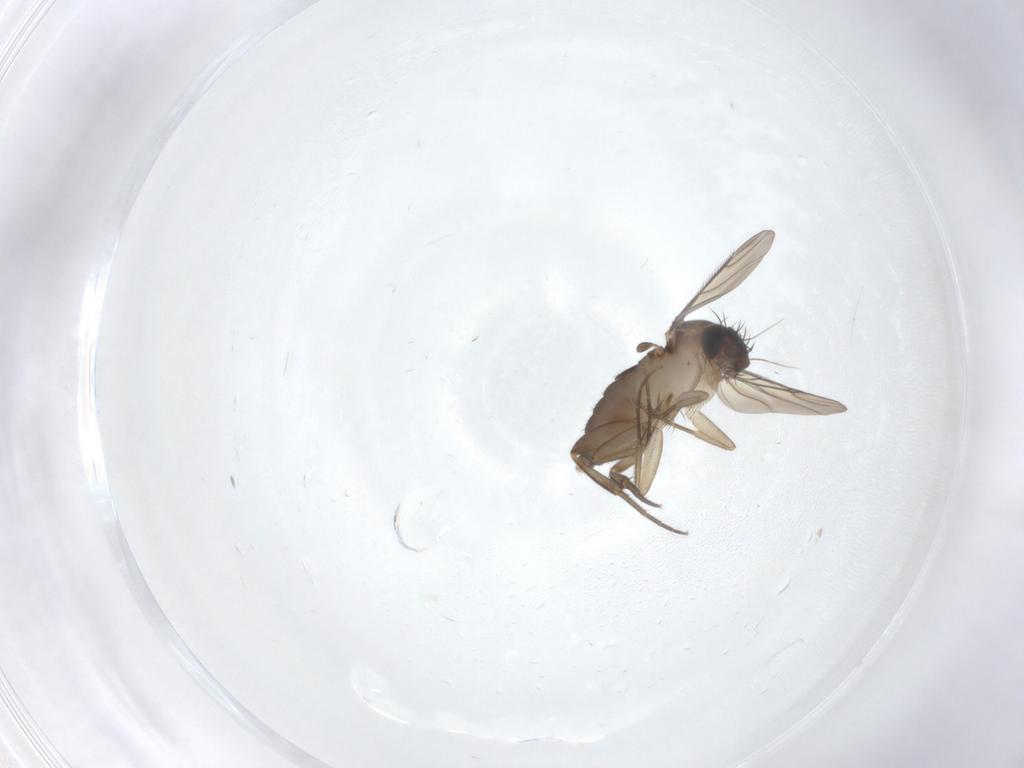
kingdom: Animalia
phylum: Arthropoda
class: Insecta
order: Diptera
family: Phoridae
